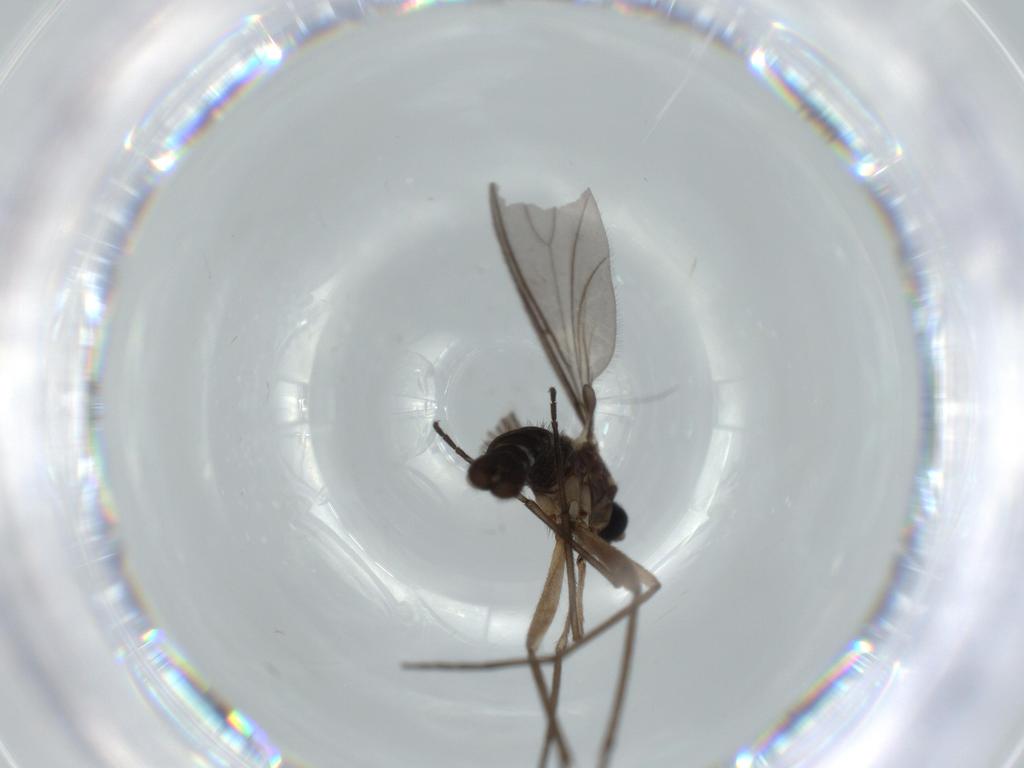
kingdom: Animalia
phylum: Arthropoda
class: Insecta
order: Diptera
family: Sciaridae
